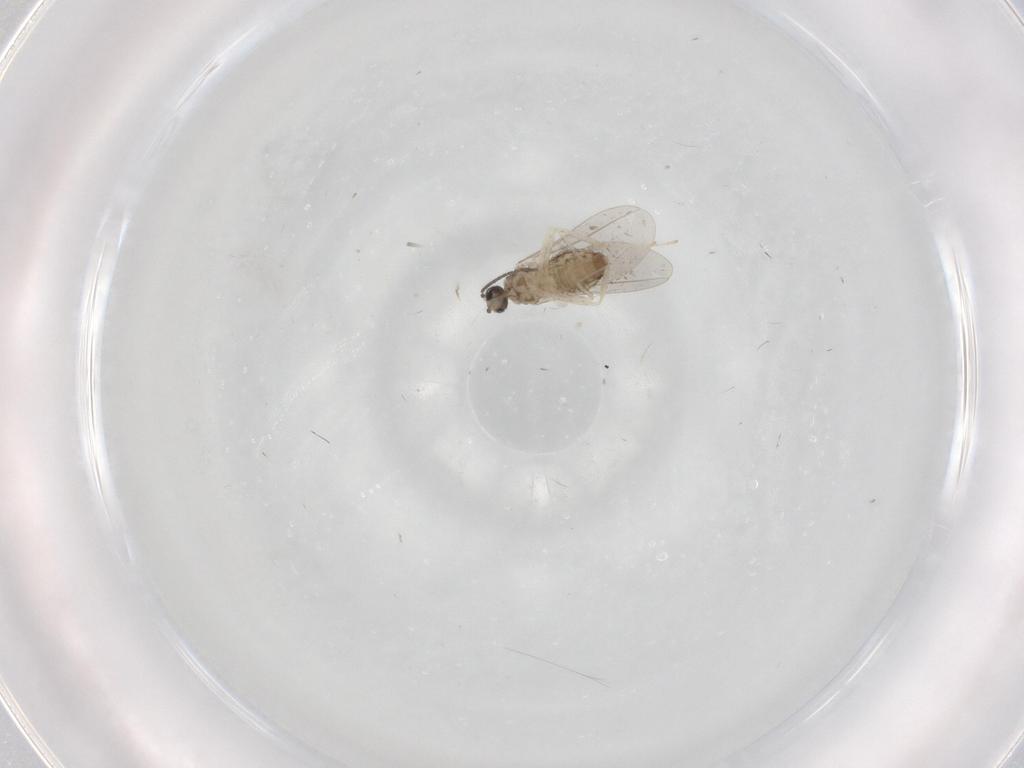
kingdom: Animalia
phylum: Arthropoda
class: Insecta
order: Diptera
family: Cecidomyiidae
